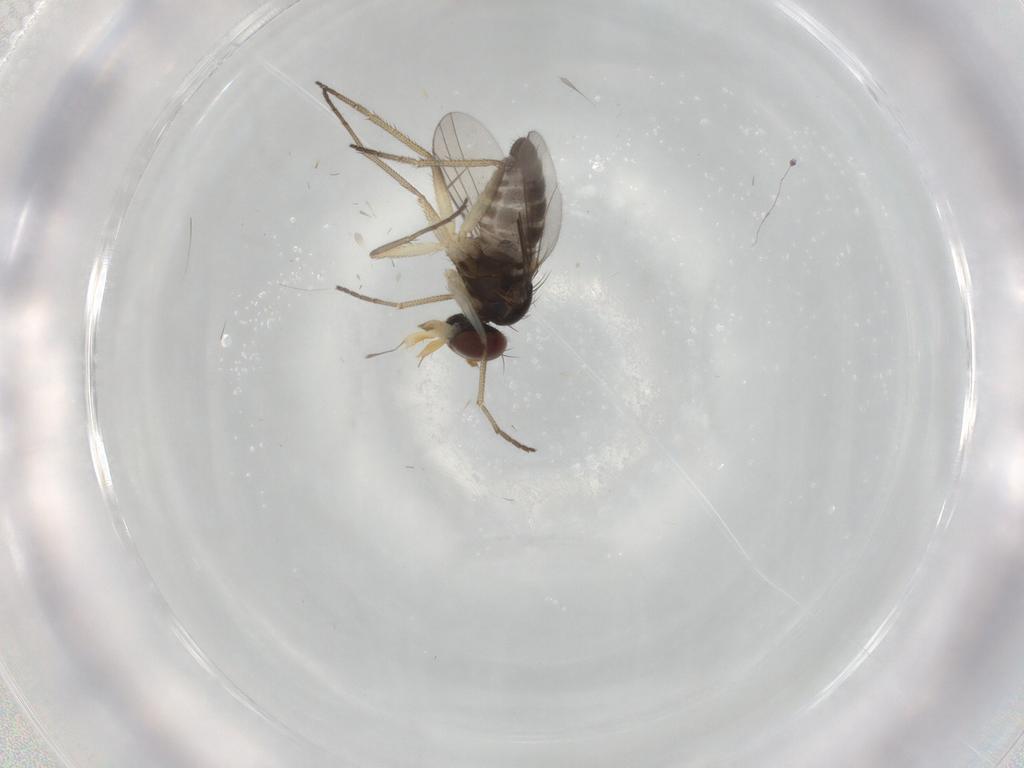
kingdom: Animalia
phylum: Arthropoda
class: Insecta
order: Diptera
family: Dolichopodidae
